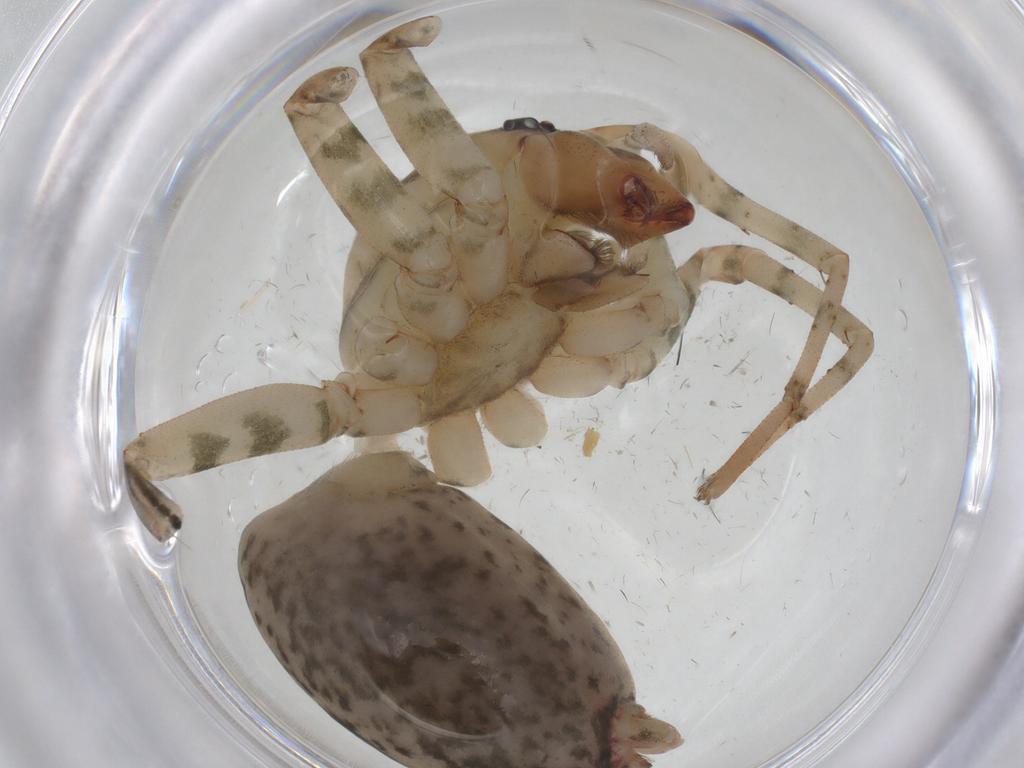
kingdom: Animalia
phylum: Arthropoda
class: Arachnida
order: Araneae
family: Anyphaenidae
